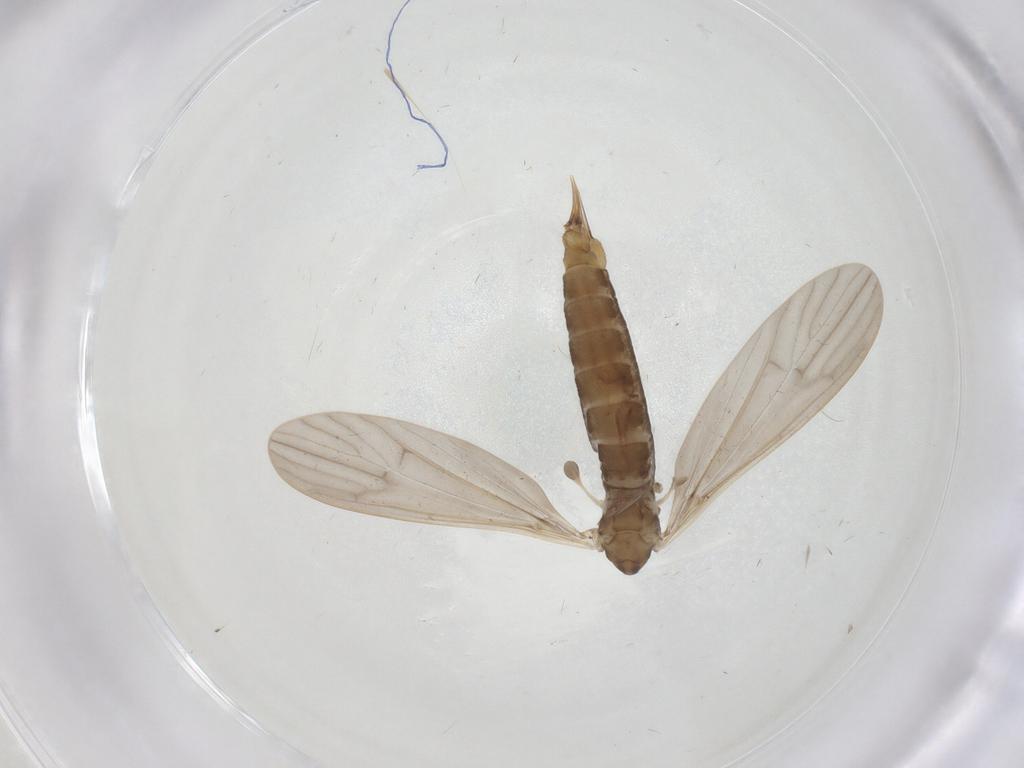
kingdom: Animalia
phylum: Arthropoda
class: Insecta
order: Diptera
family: Limoniidae
